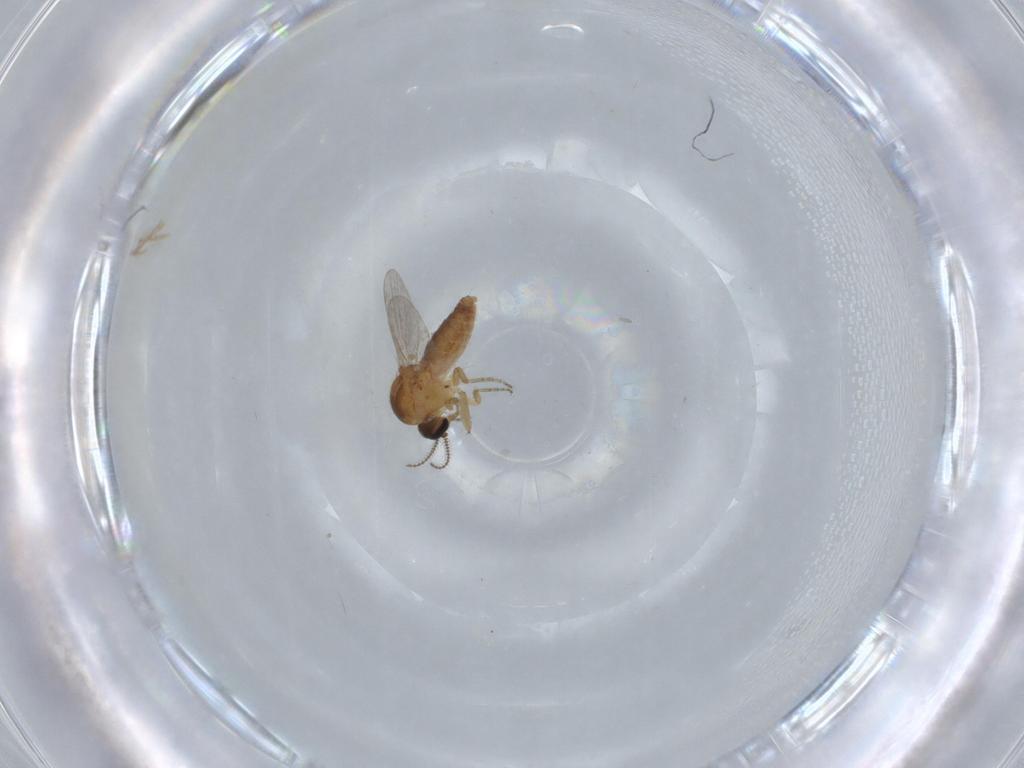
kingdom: Animalia
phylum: Arthropoda
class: Insecta
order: Diptera
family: Ceratopogonidae
